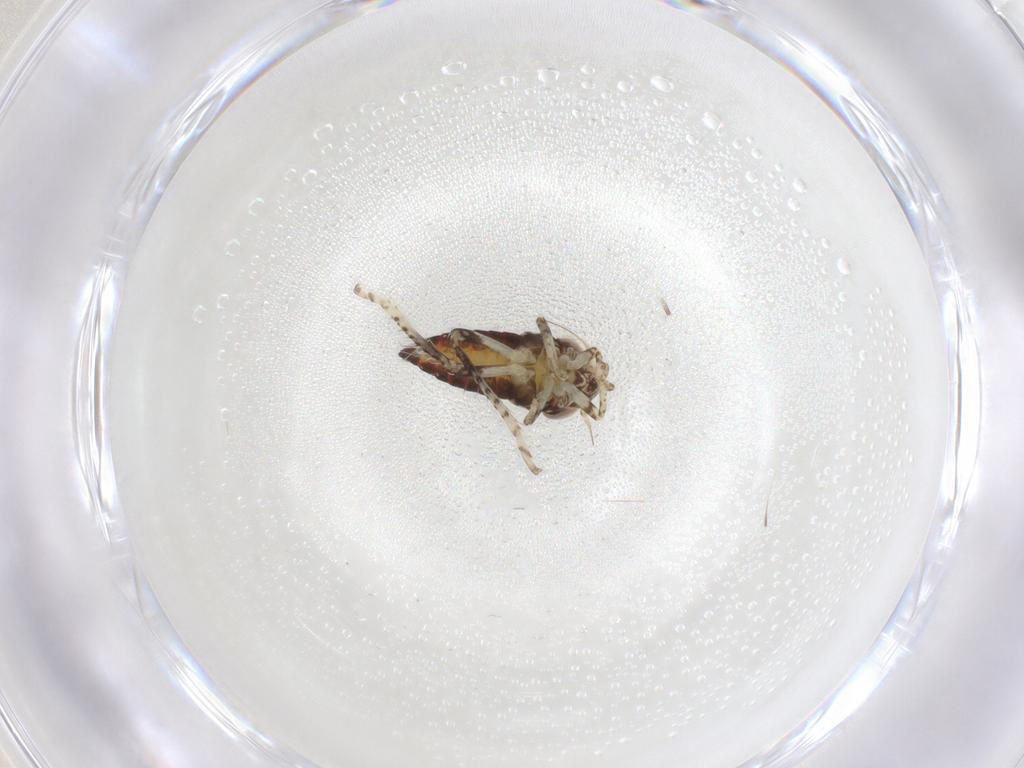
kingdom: Animalia
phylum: Arthropoda
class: Insecta
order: Hemiptera
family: Cicadellidae
